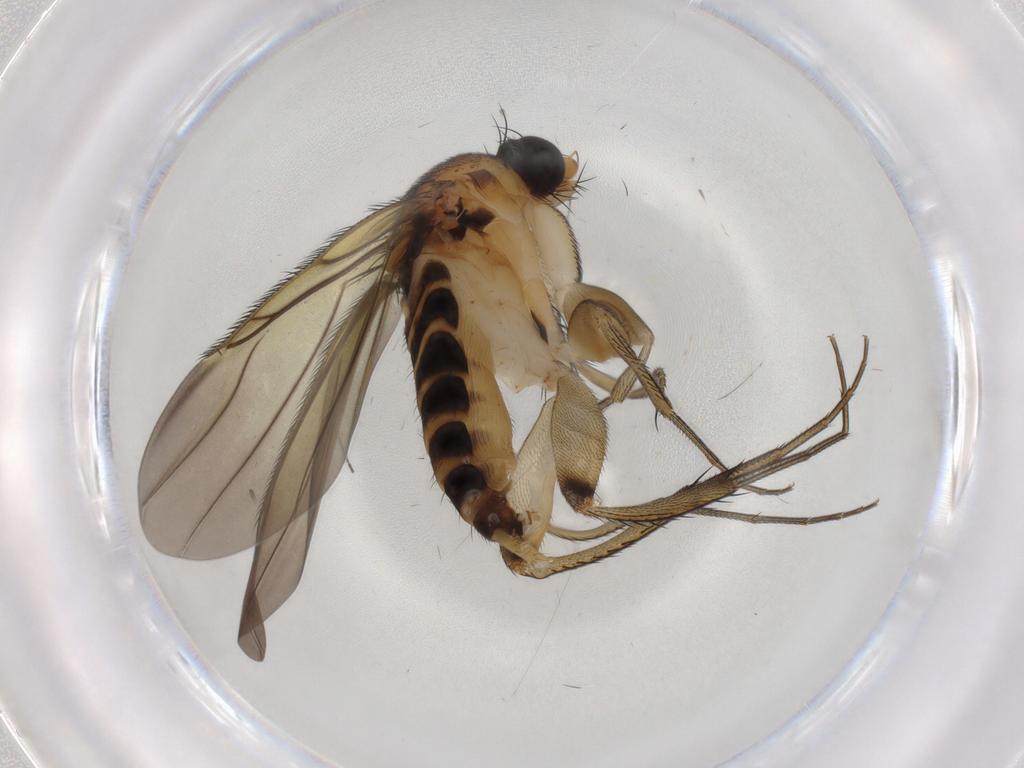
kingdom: Animalia
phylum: Arthropoda
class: Insecta
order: Diptera
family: Phoridae
